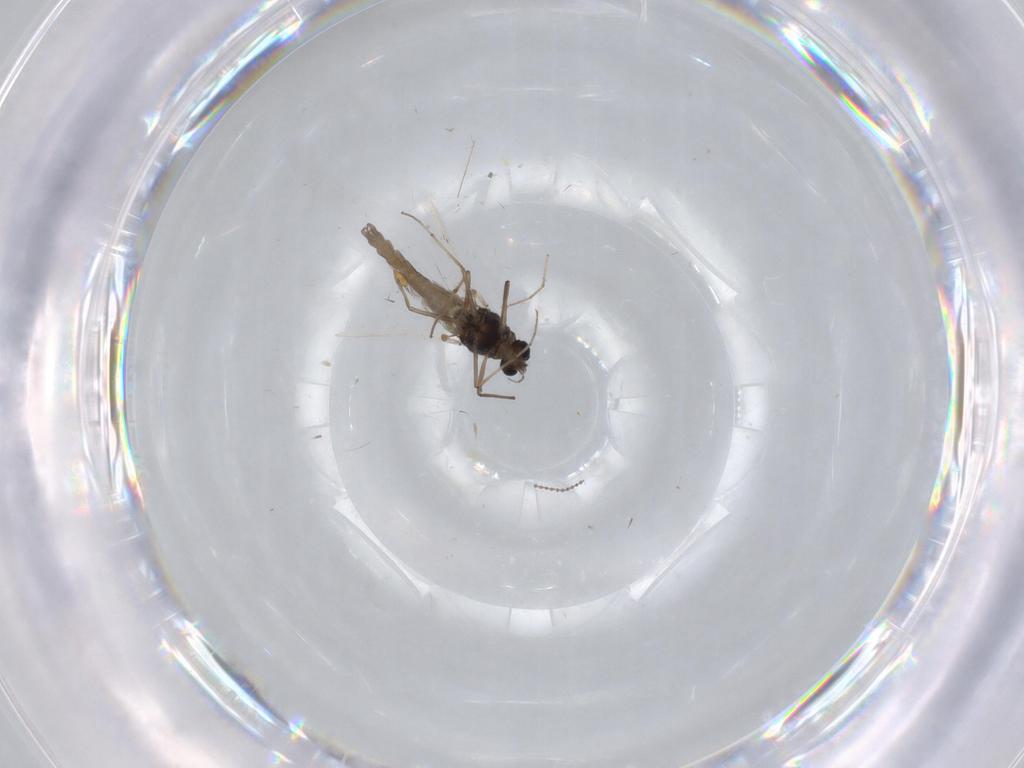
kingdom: Animalia
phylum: Arthropoda
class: Insecta
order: Diptera
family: Chironomidae
